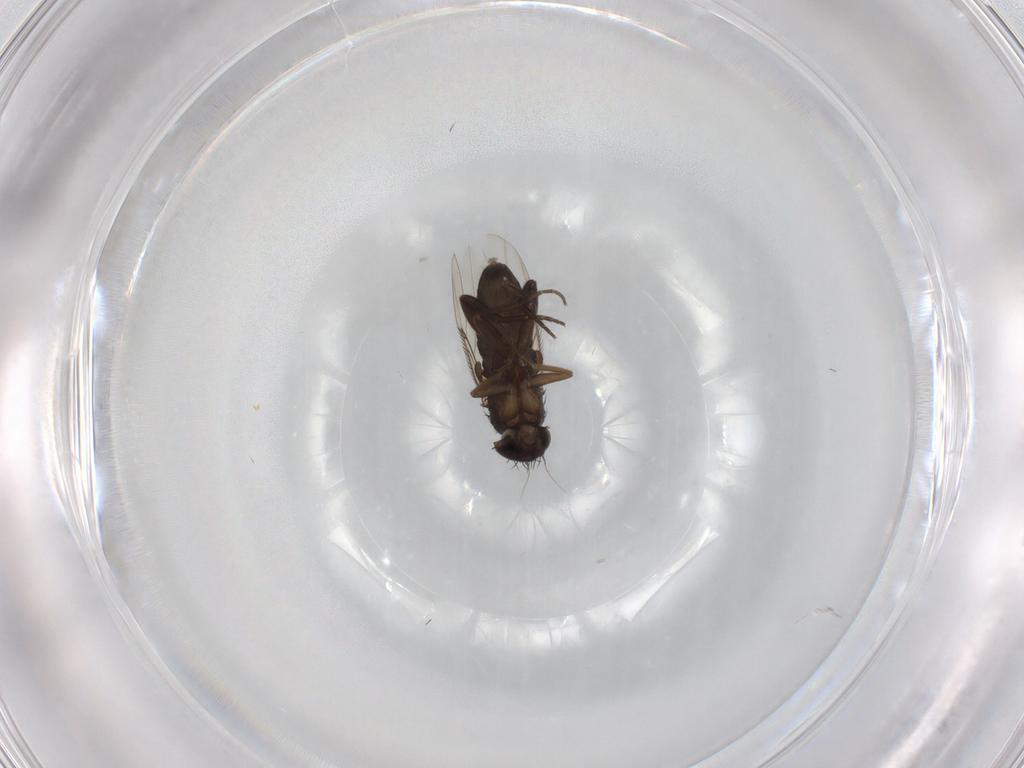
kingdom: Animalia
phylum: Arthropoda
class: Insecta
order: Diptera
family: Phoridae
